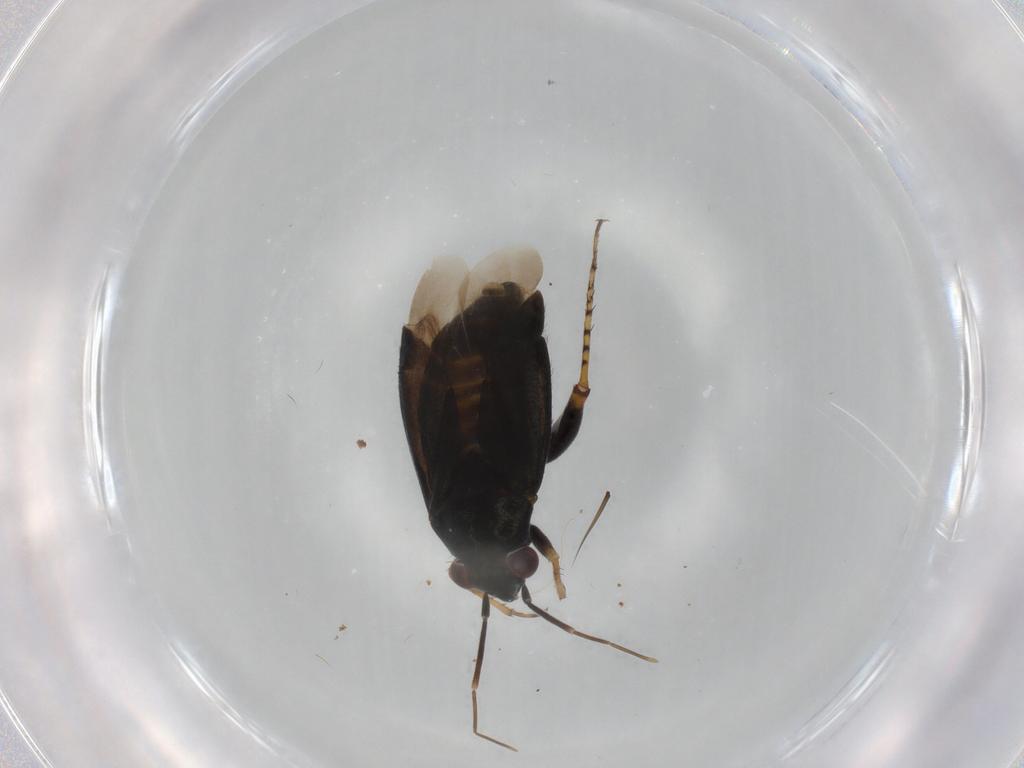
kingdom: Animalia
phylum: Arthropoda
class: Insecta
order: Hemiptera
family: Miridae
